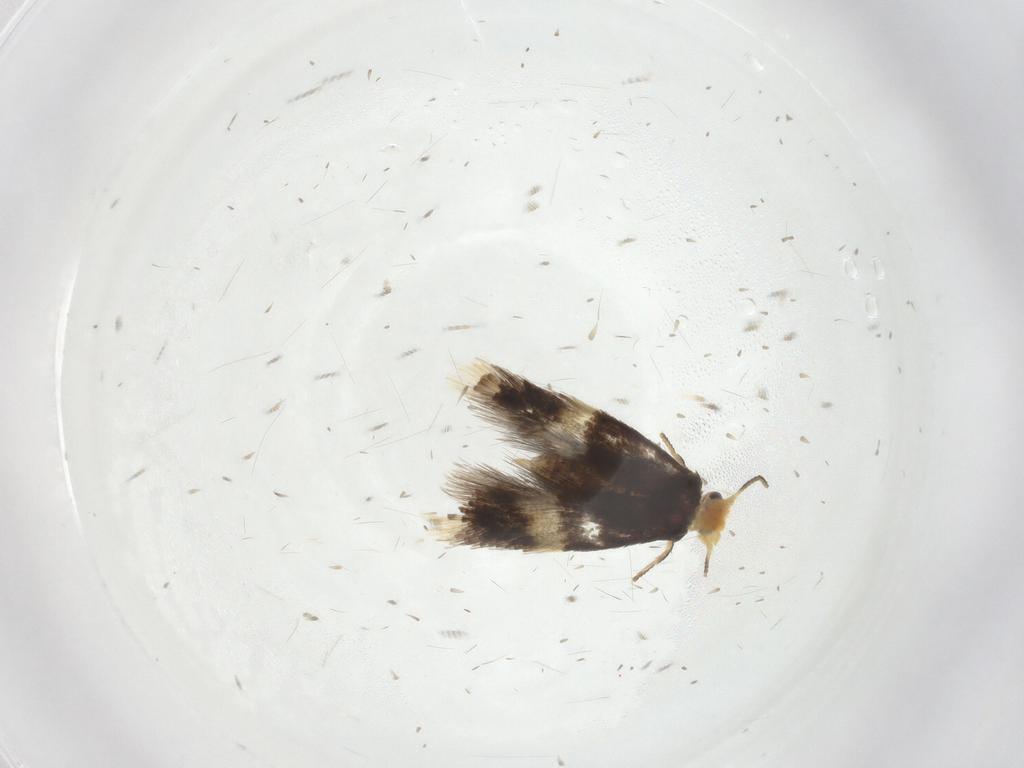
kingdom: Animalia
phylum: Arthropoda
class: Insecta
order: Lepidoptera
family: Nepticulidae
